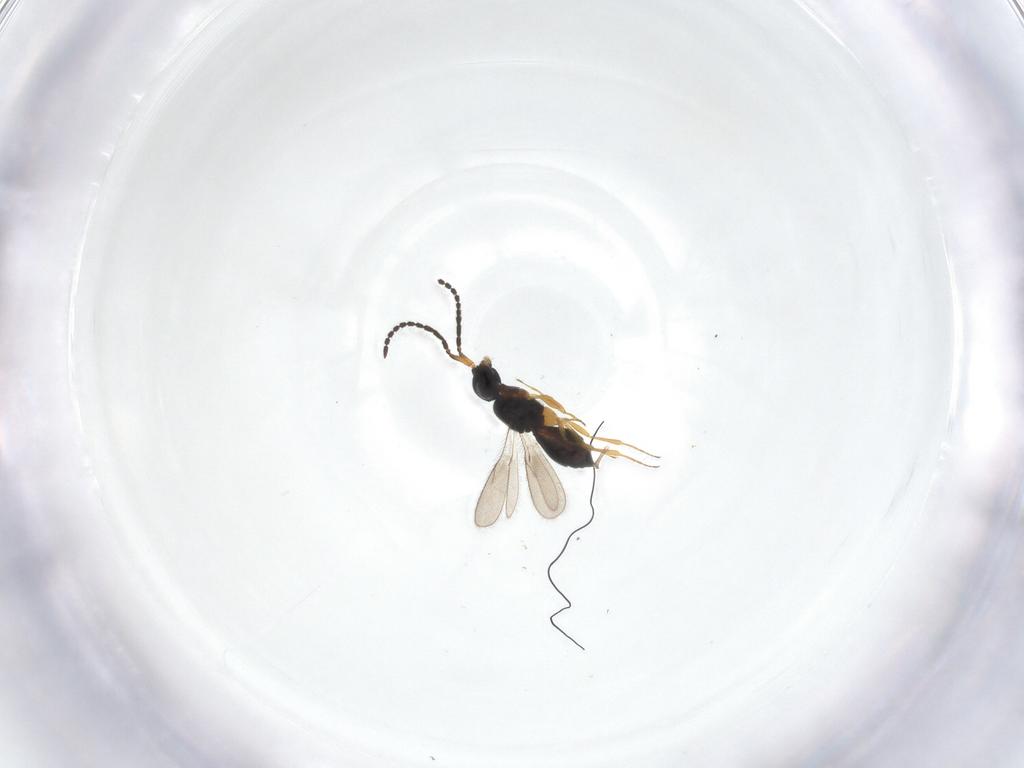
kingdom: Animalia
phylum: Arthropoda
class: Insecta
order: Hymenoptera
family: Scelionidae
